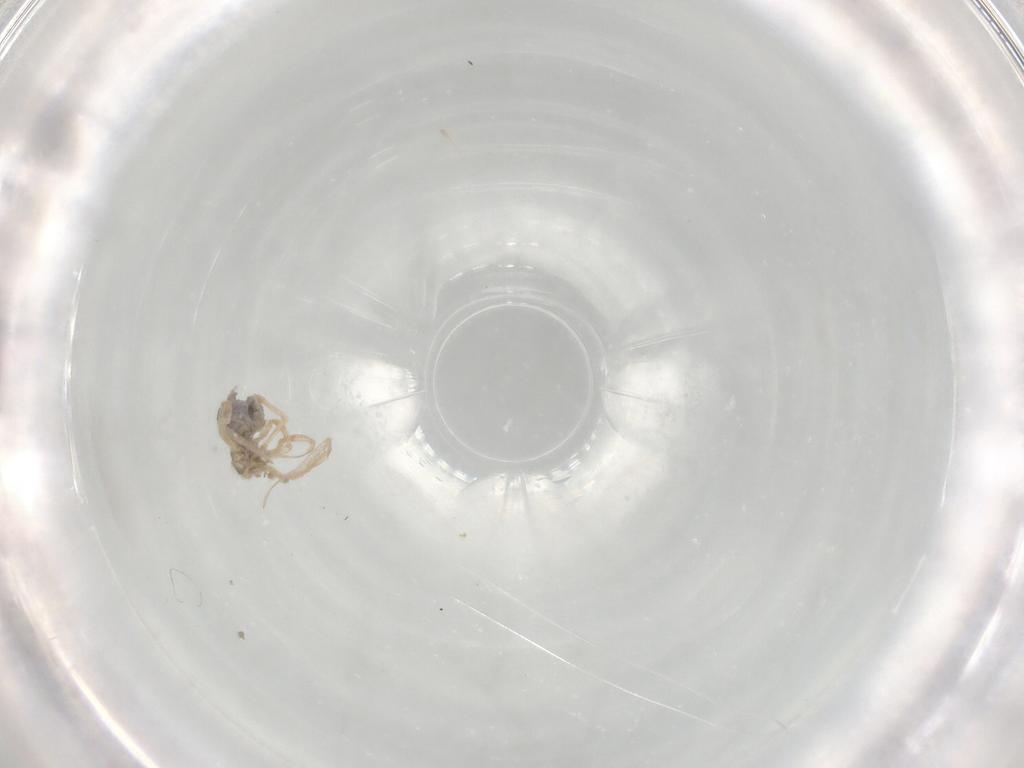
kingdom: Animalia
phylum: Arthropoda
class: Arachnida
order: Araneae
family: Pholcidae
